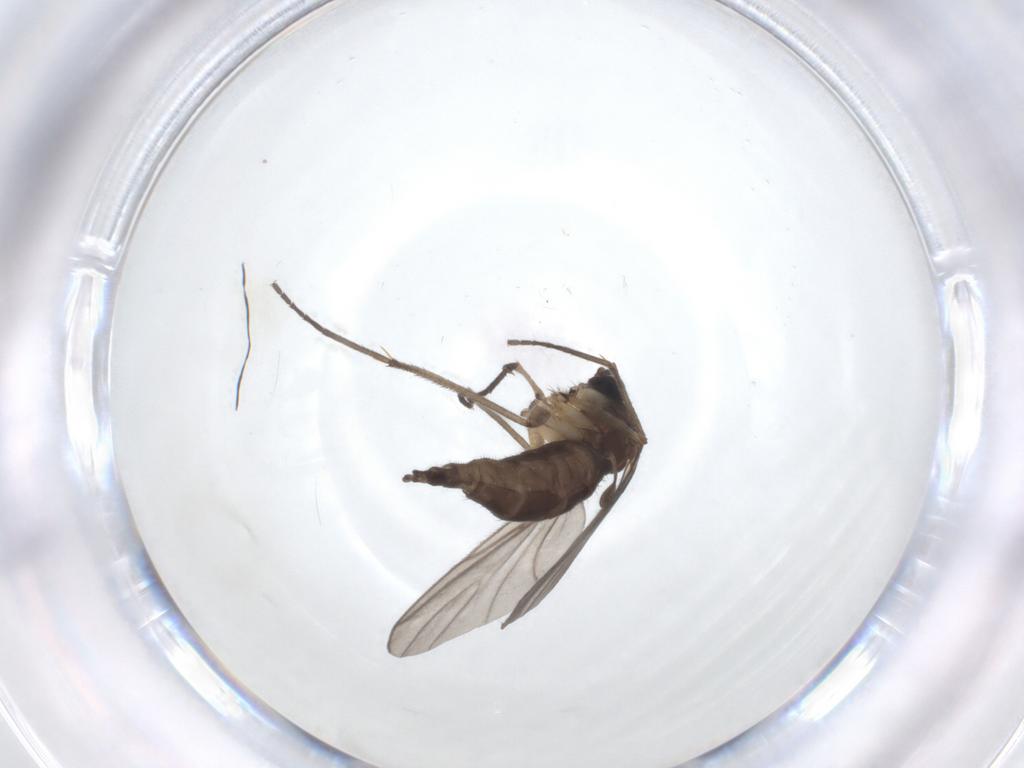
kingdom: Animalia
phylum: Arthropoda
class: Insecta
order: Diptera
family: Sciaridae
